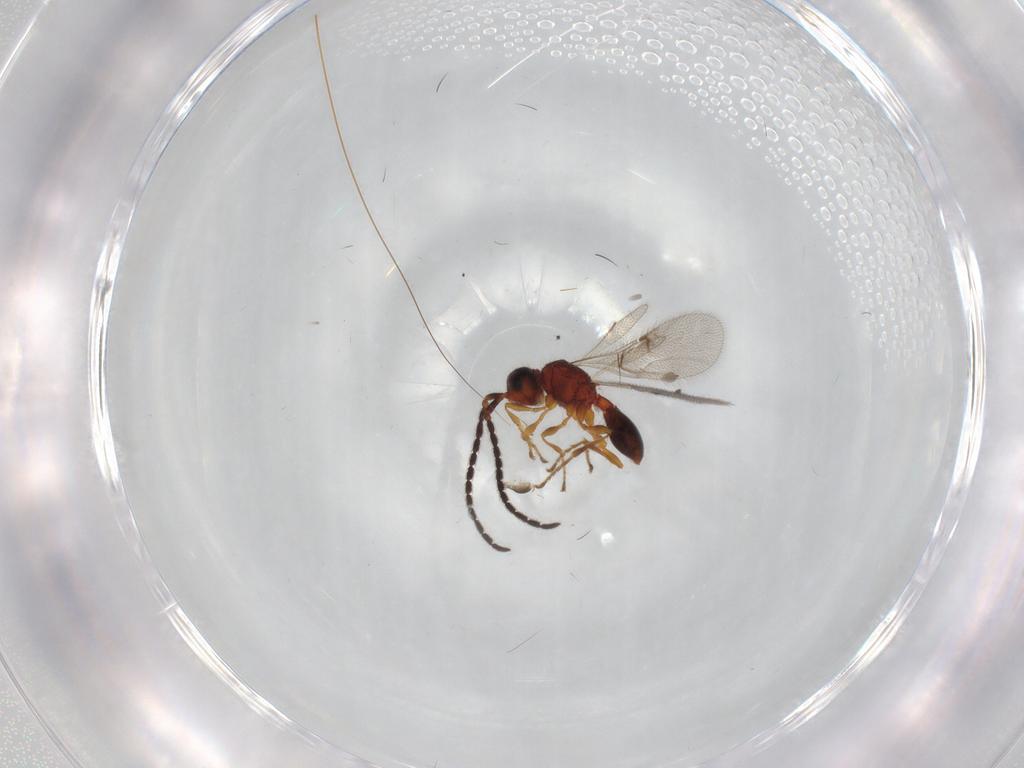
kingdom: Animalia
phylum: Arthropoda
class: Insecta
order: Hymenoptera
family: Diapriidae
